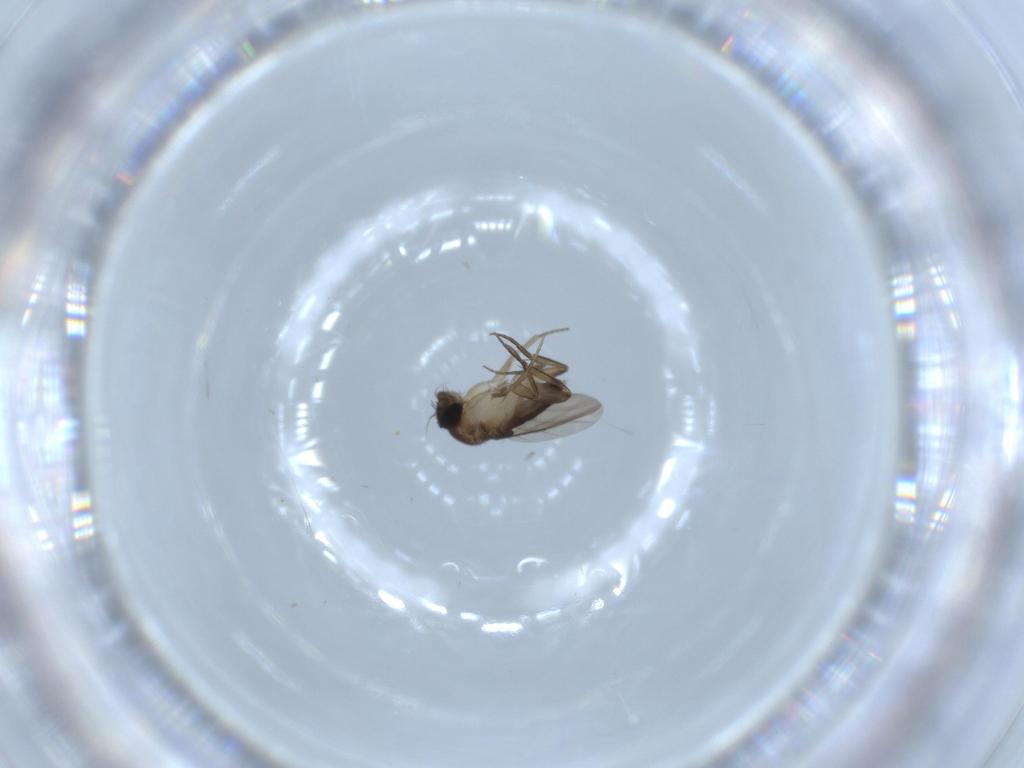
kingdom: Animalia
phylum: Arthropoda
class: Insecta
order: Diptera
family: Phoridae
